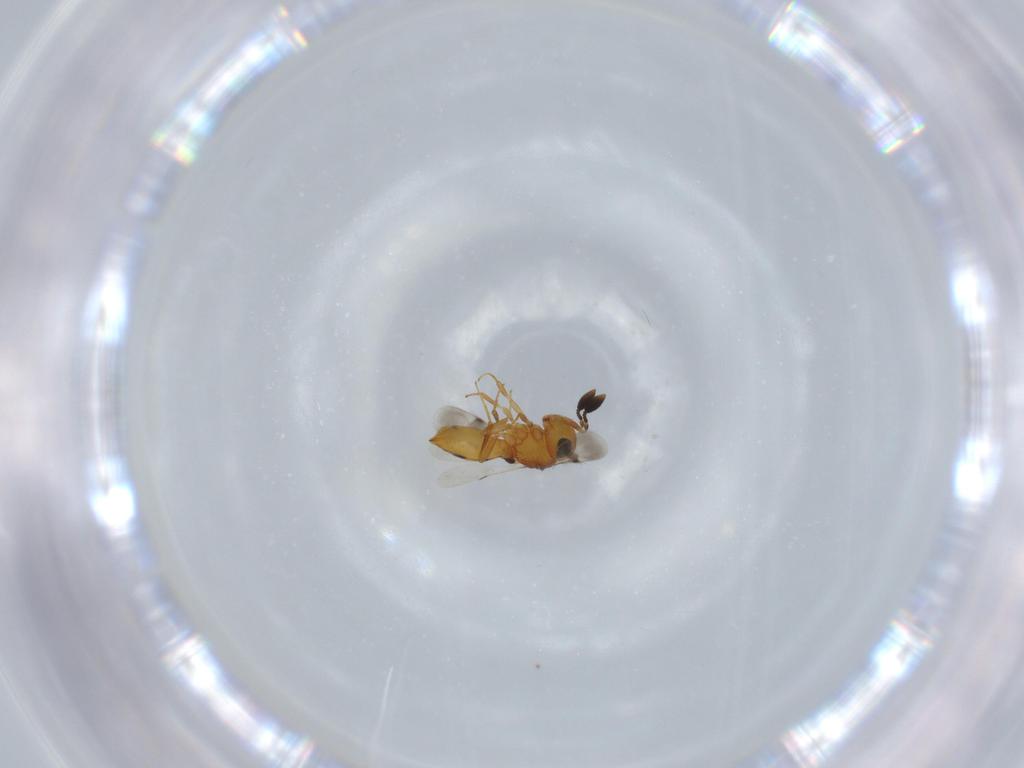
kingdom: Animalia
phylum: Arthropoda
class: Insecta
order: Hymenoptera
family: Scelionidae
